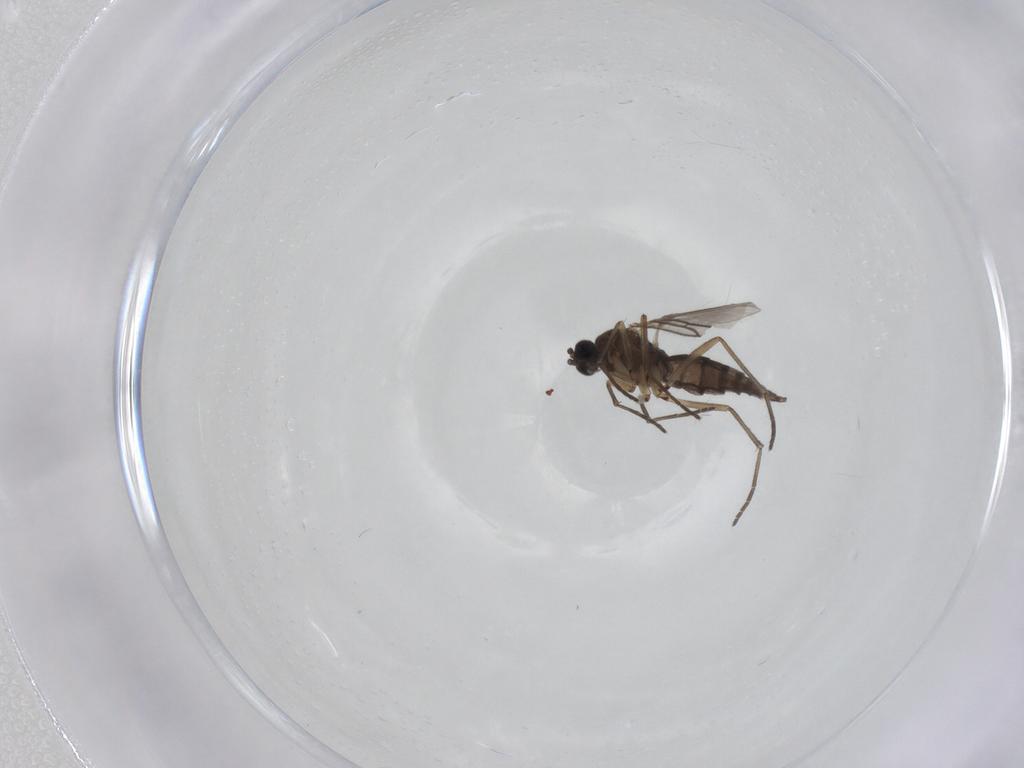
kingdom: Animalia
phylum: Arthropoda
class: Insecta
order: Diptera
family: Sciaridae
